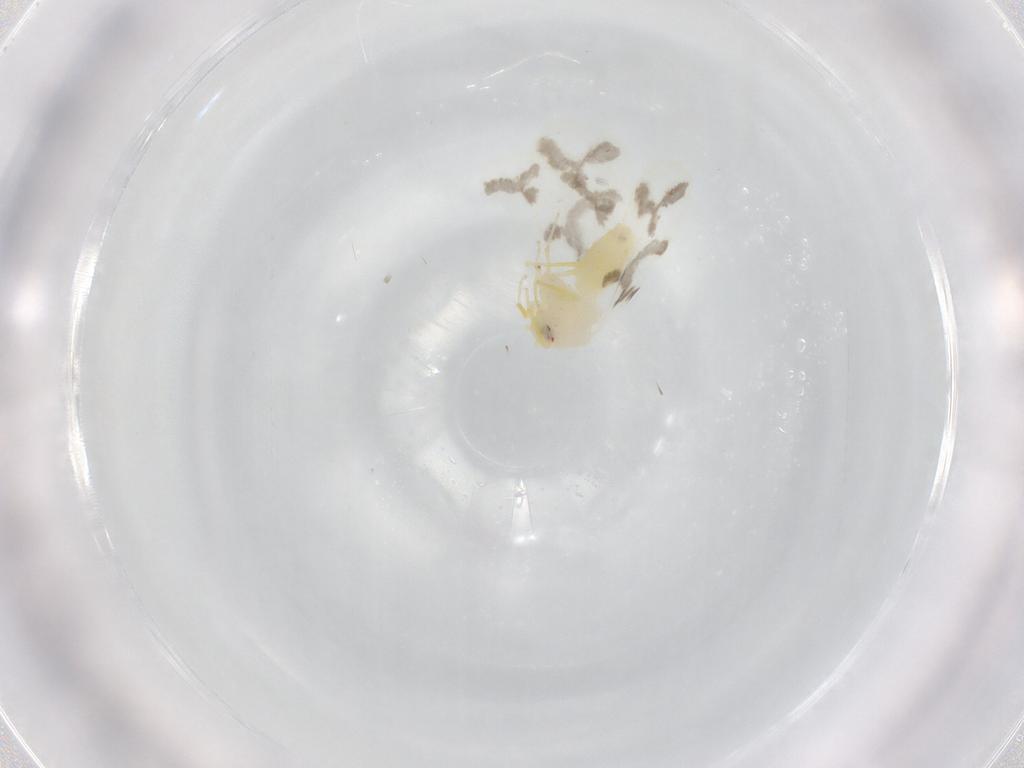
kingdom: Animalia
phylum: Arthropoda
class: Insecta
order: Hemiptera
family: Aleyrodidae
